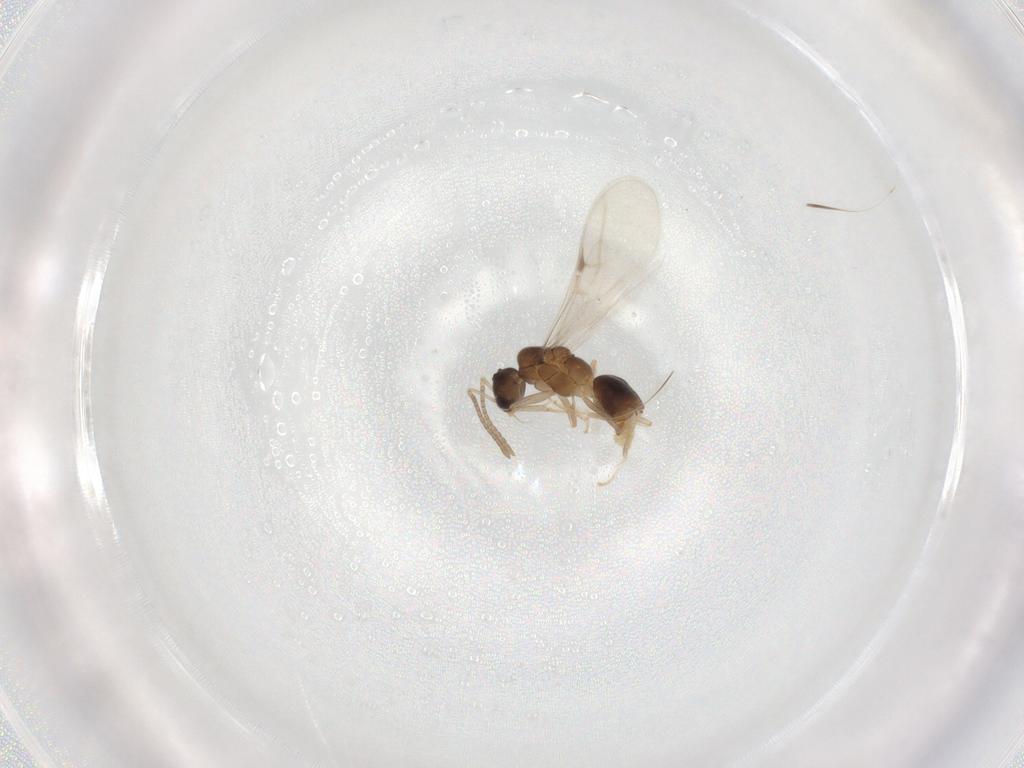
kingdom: Animalia
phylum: Arthropoda
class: Insecta
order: Hymenoptera
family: Formicidae
